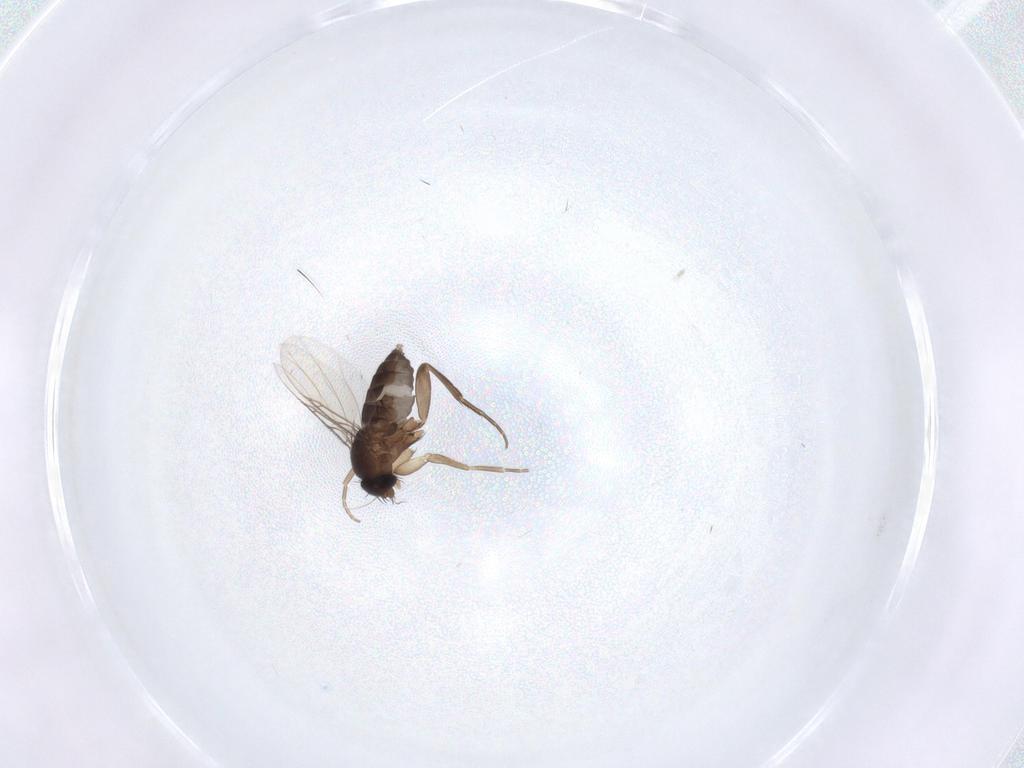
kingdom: Animalia
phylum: Arthropoda
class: Insecta
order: Diptera
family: Phoridae
